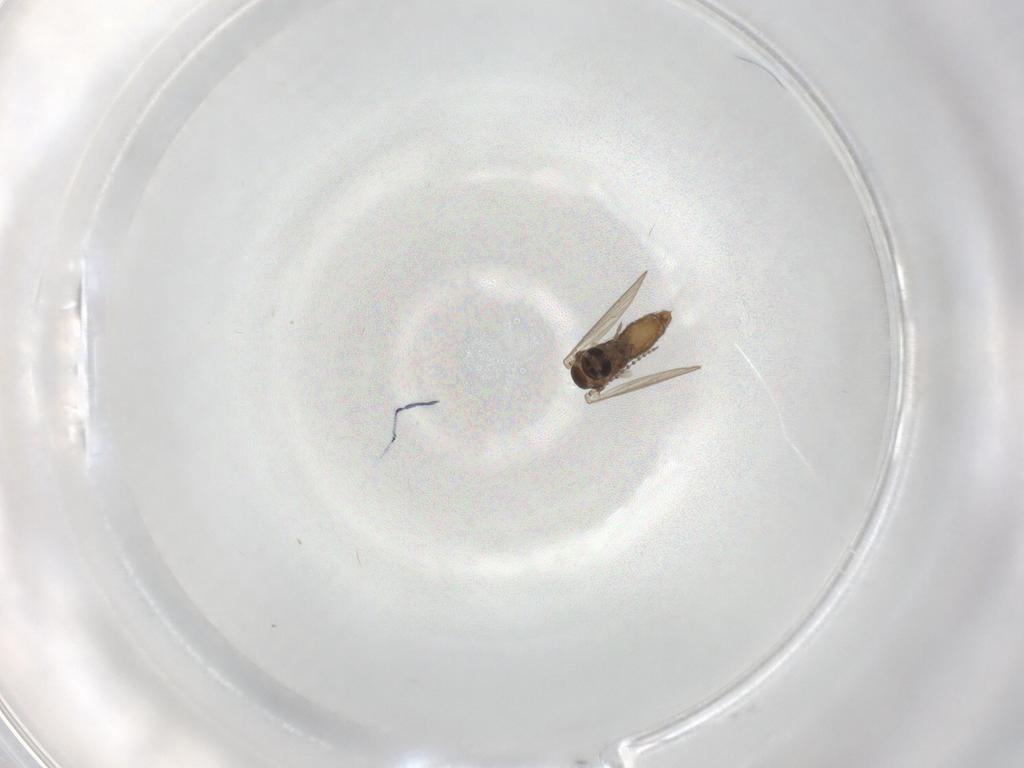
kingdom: Animalia
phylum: Arthropoda
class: Insecta
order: Diptera
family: Psychodidae
